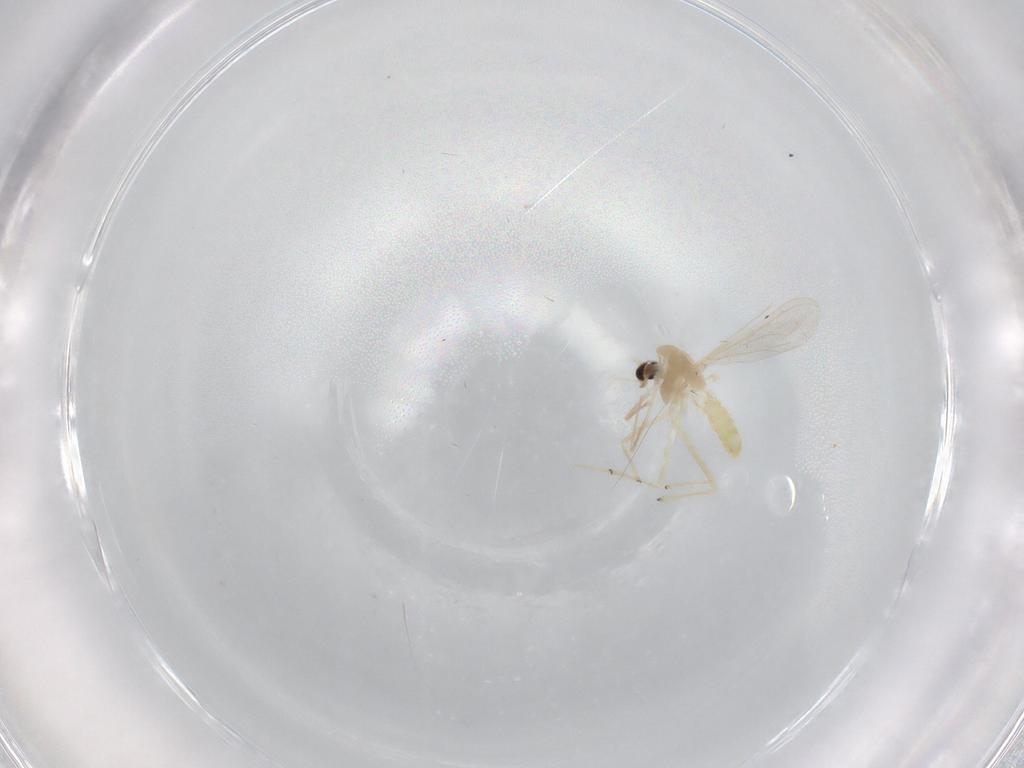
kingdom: Animalia
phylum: Arthropoda
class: Insecta
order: Diptera
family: Chironomidae
